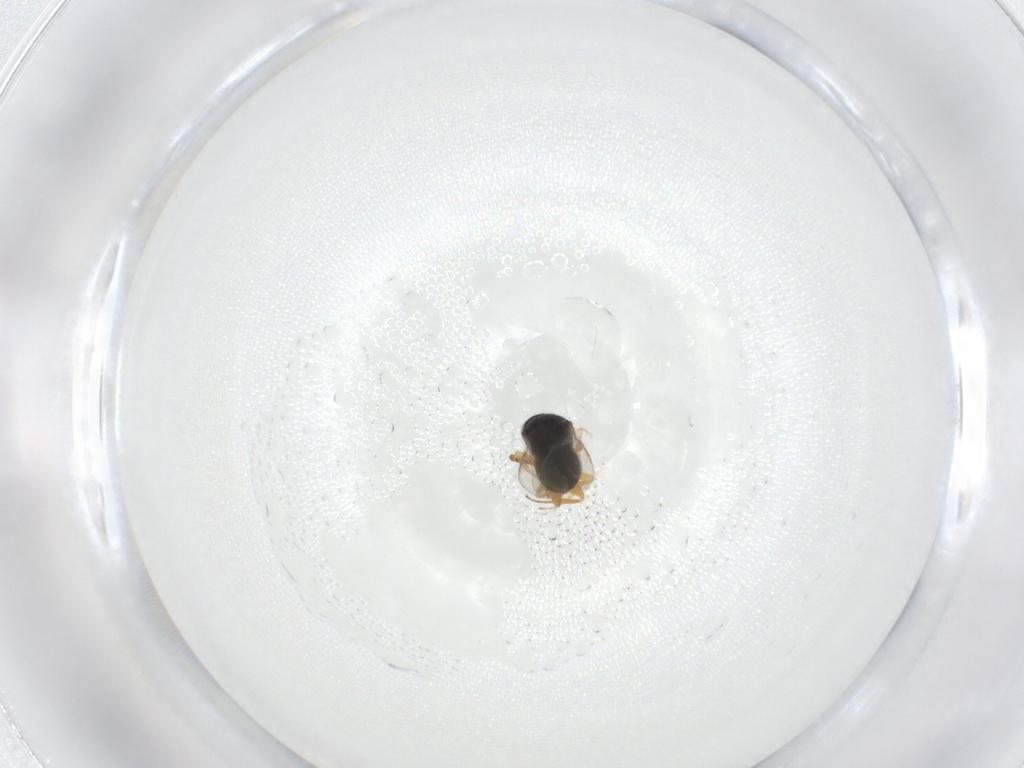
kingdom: Animalia
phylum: Arthropoda
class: Insecta
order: Hymenoptera
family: Scelionidae
